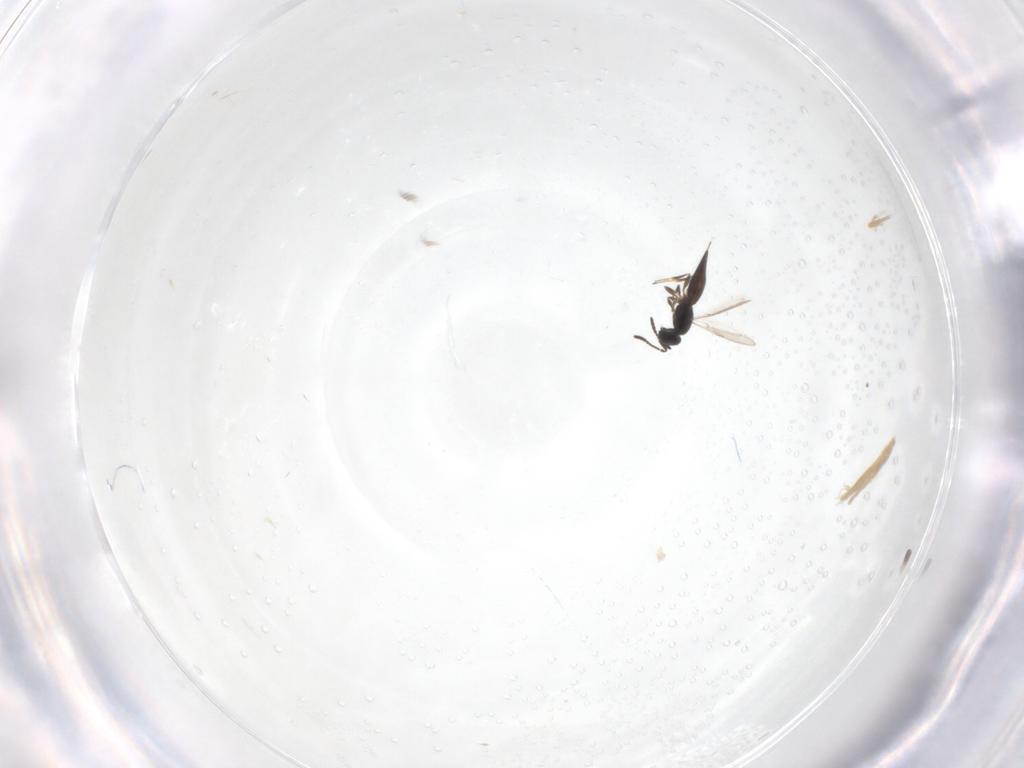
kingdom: Animalia
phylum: Arthropoda
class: Insecta
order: Hymenoptera
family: Scelionidae
